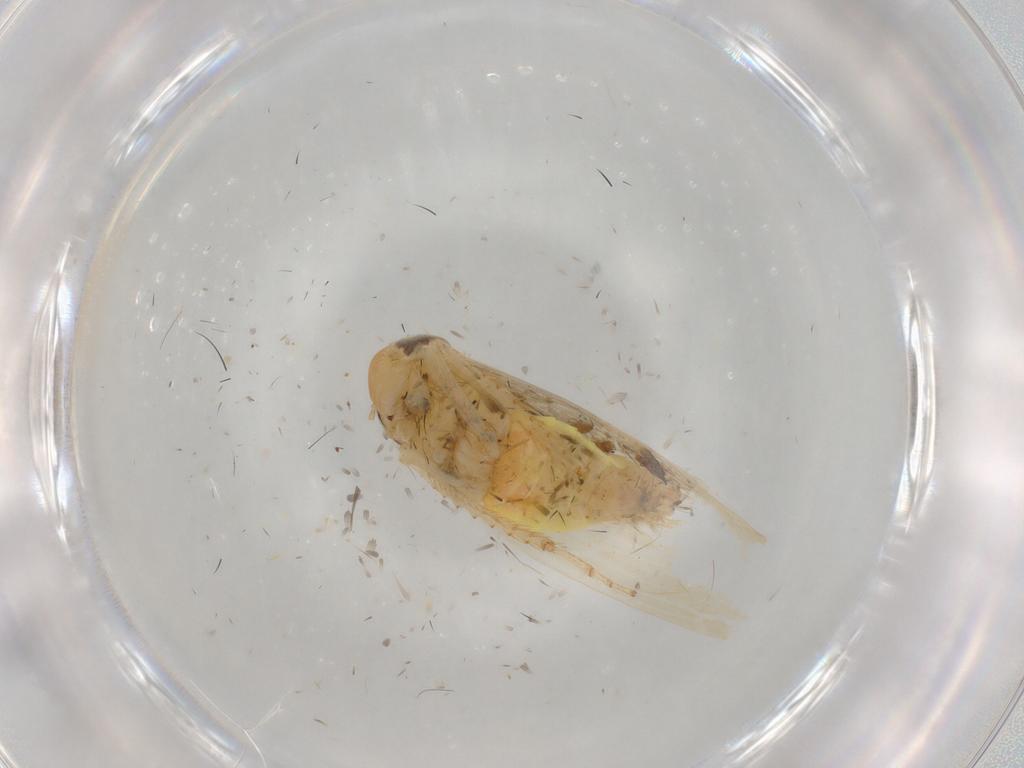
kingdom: Animalia
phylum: Arthropoda
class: Insecta
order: Hemiptera
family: Cicadellidae
